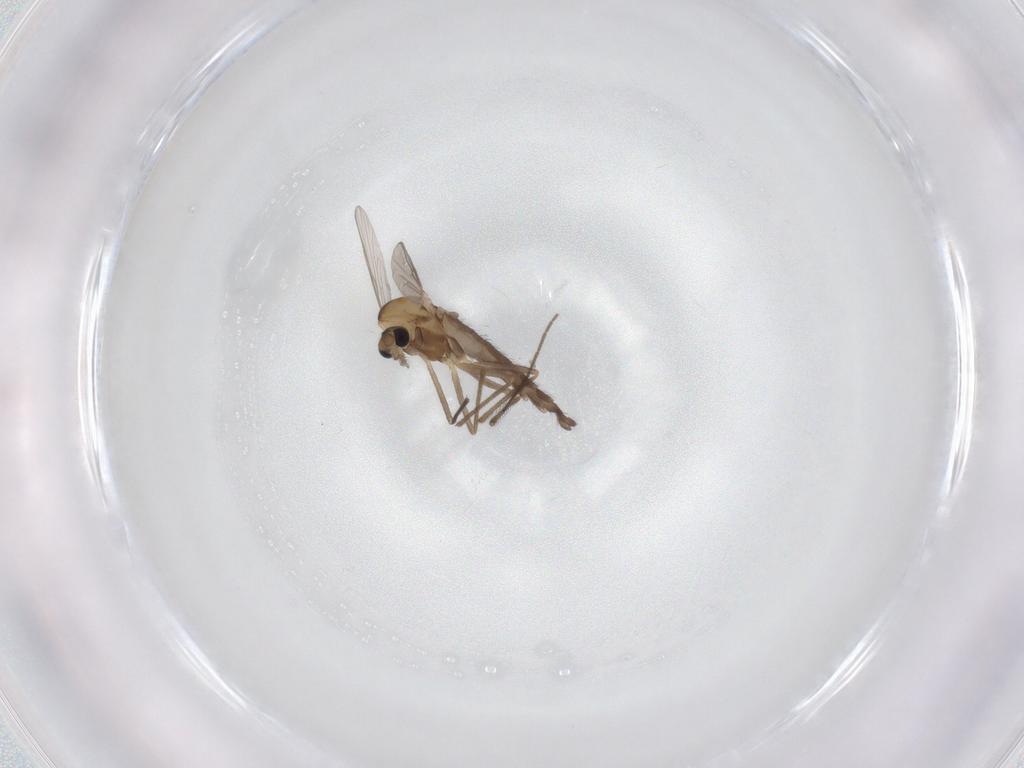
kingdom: Animalia
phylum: Arthropoda
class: Insecta
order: Diptera
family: Chironomidae
